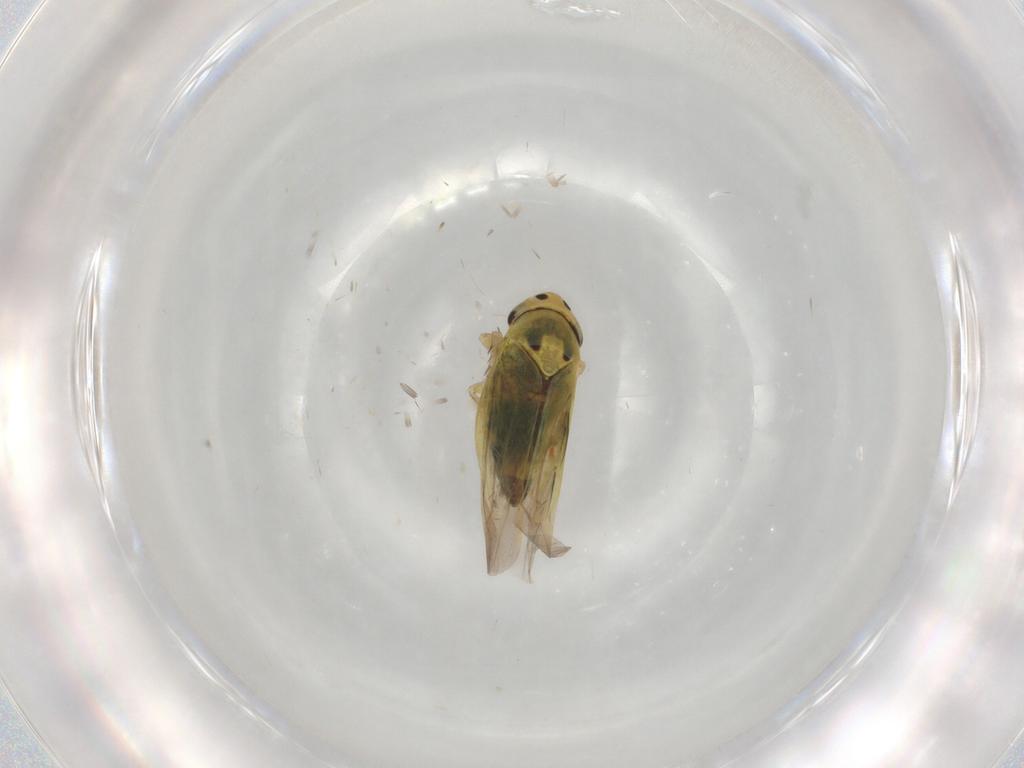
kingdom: Animalia
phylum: Arthropoda
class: Insecta
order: Hemiptera
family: Cicadellidae
